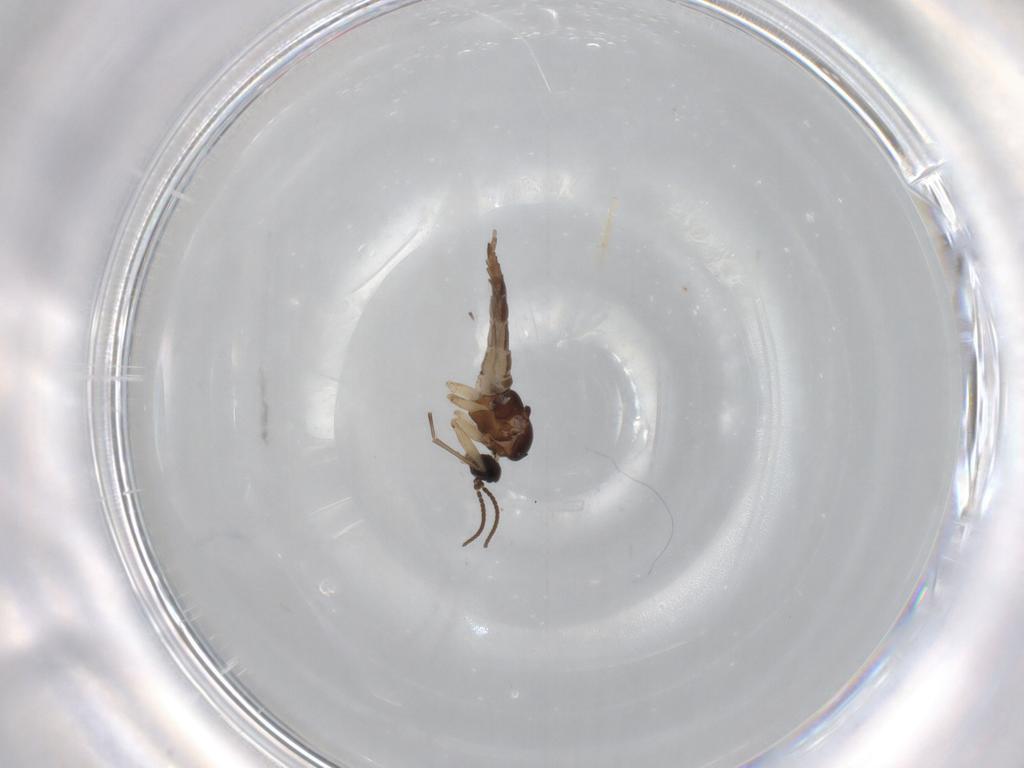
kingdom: Animalia
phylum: Arthropoda
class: Insecta
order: Diptera
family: Sciaridae
